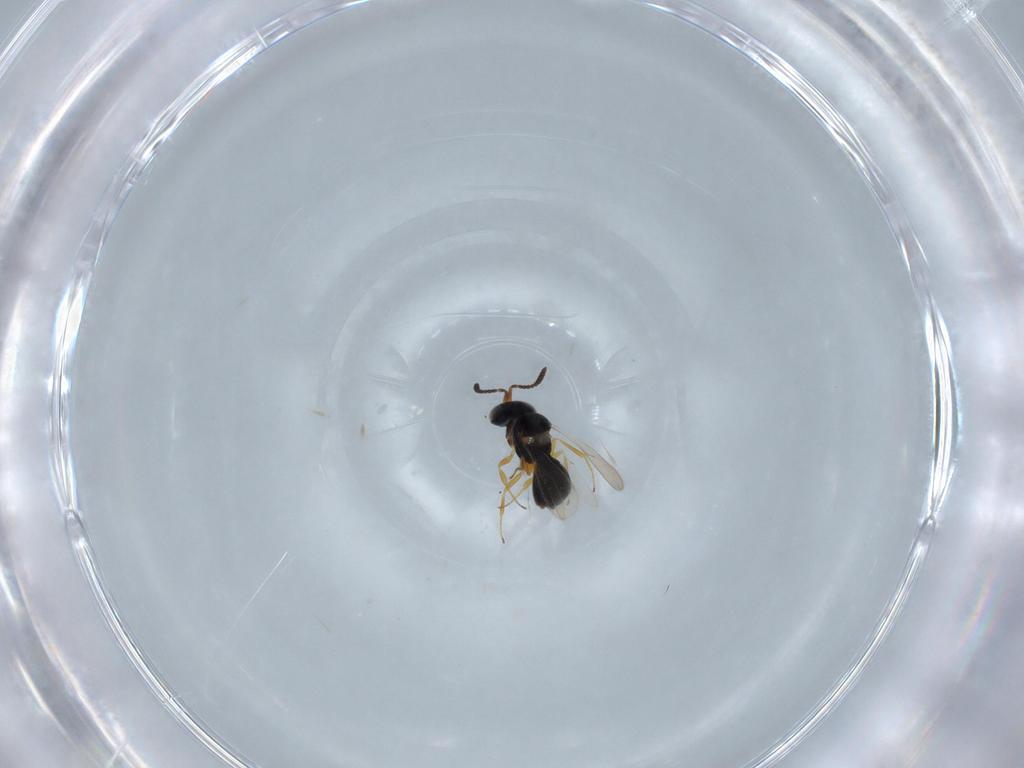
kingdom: Animalia
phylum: Arthropoda
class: Insecta
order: Hymenoptera
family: Scelionidae
